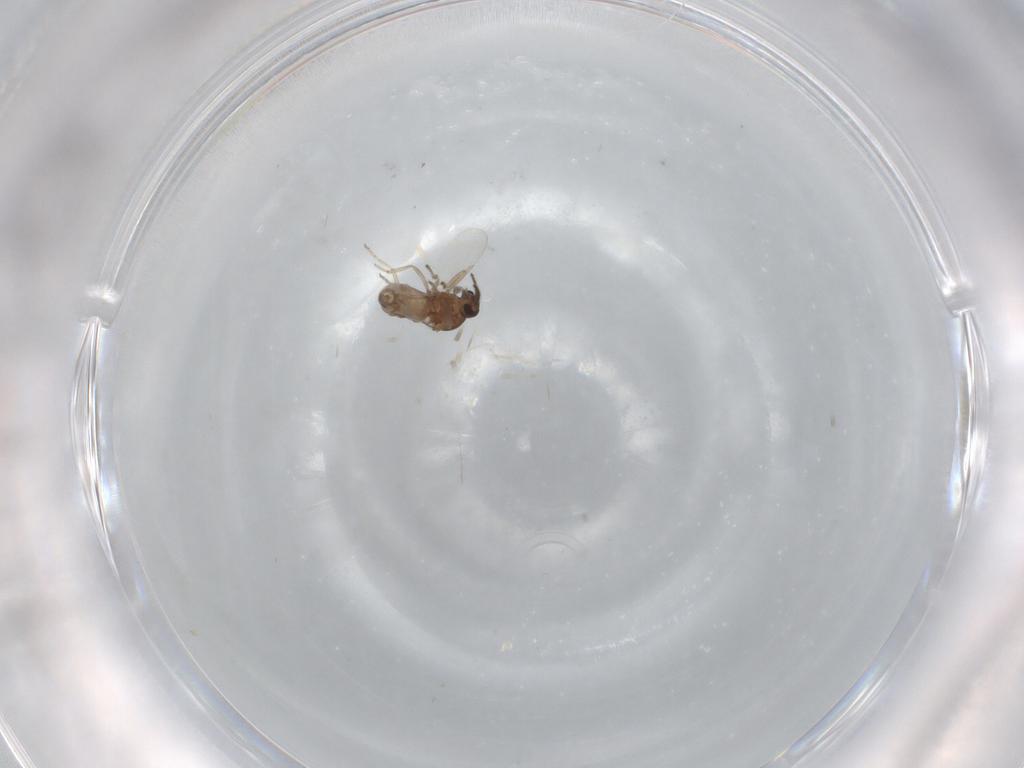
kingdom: Animalia
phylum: Arthropoda
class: Insecta
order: Diptera
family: Ceratopogonidae
